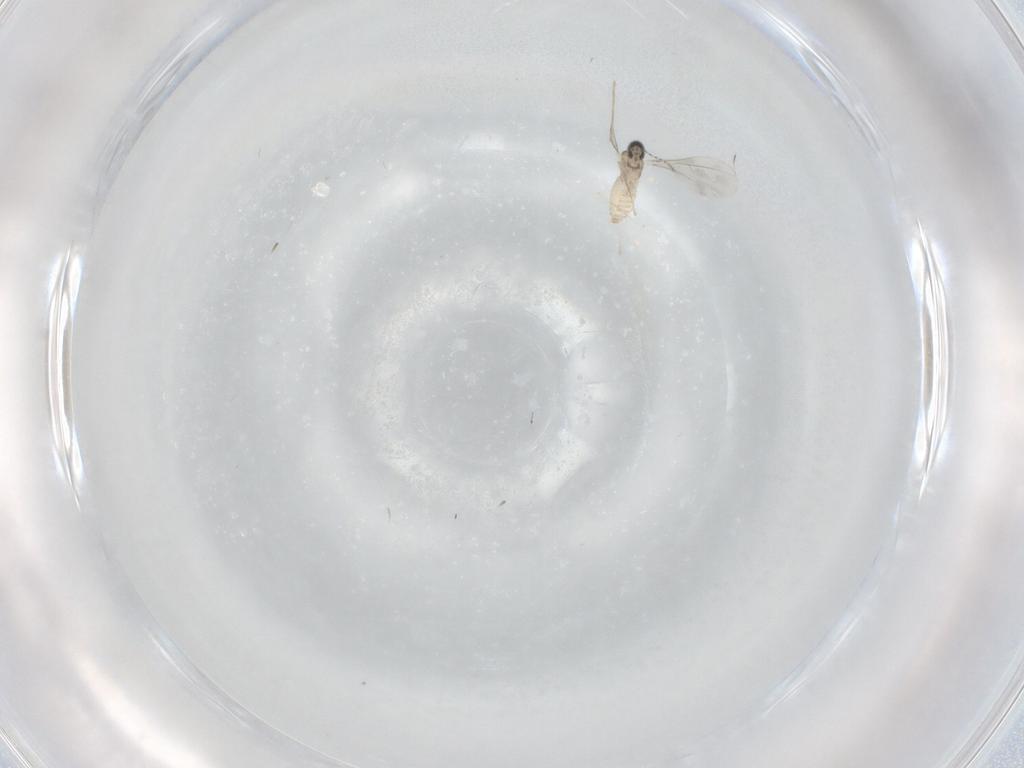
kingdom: Animalia
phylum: Arthropoda
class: Insecta
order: Diptera
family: Cecidomyiidae
